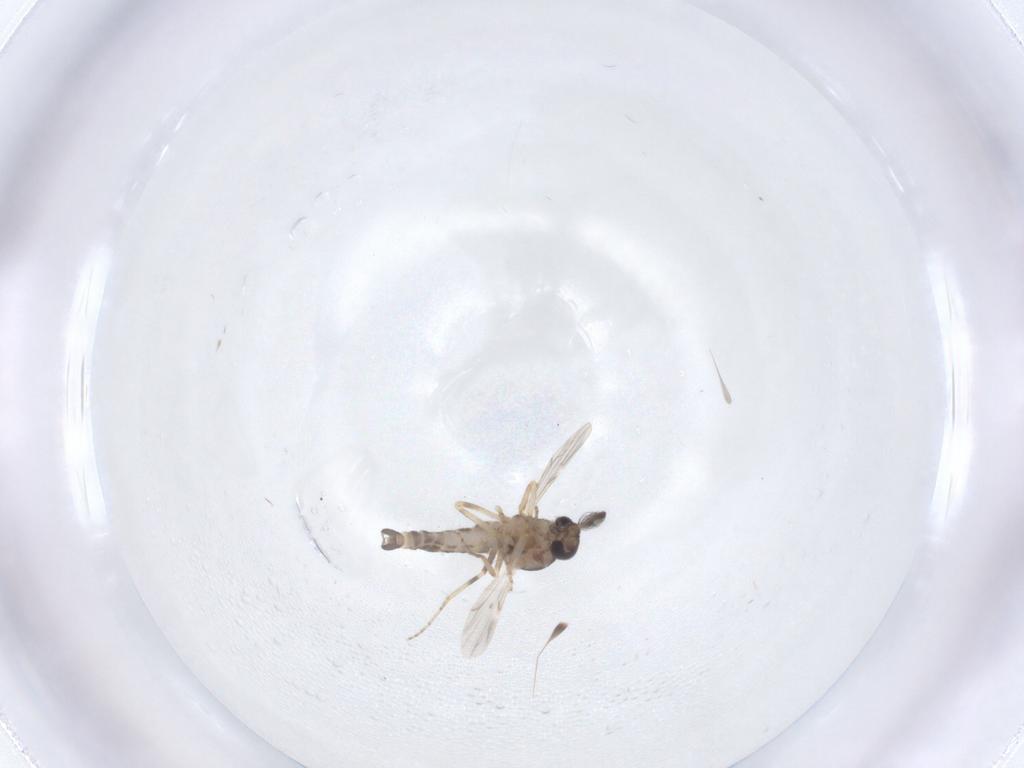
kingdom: Animalia
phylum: Arthropoda
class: Insecta
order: Diptera
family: Ceratopogonidae
